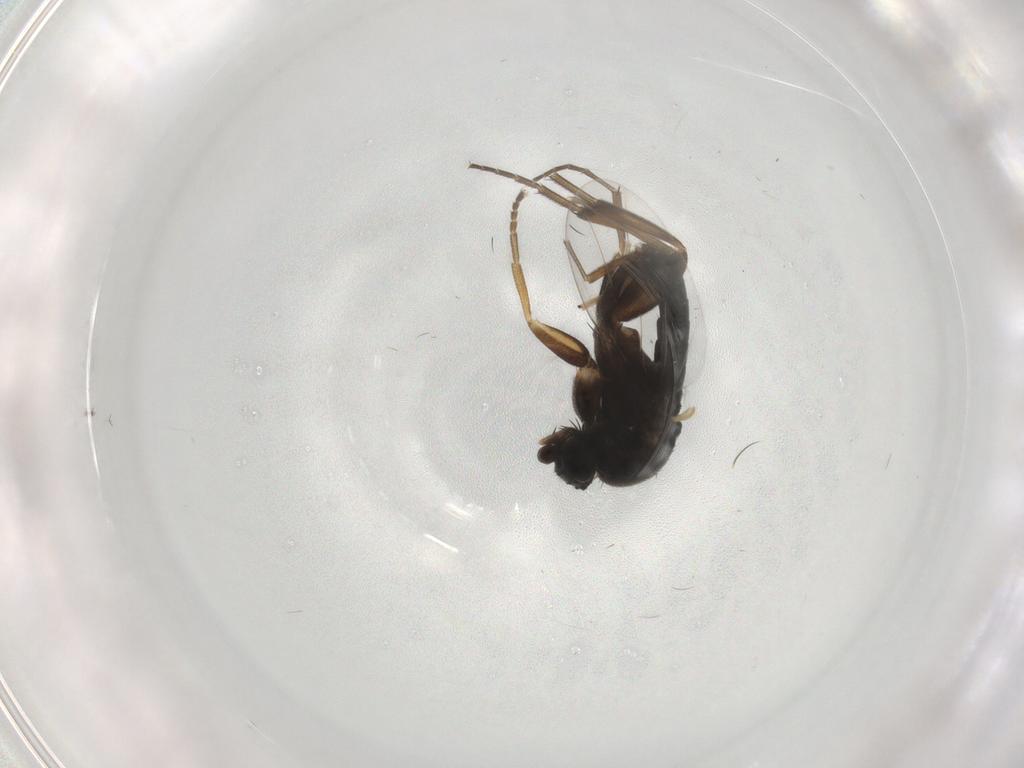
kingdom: Animalia
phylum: Arthropoda
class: Insecta
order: Diptera
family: Phoridae
